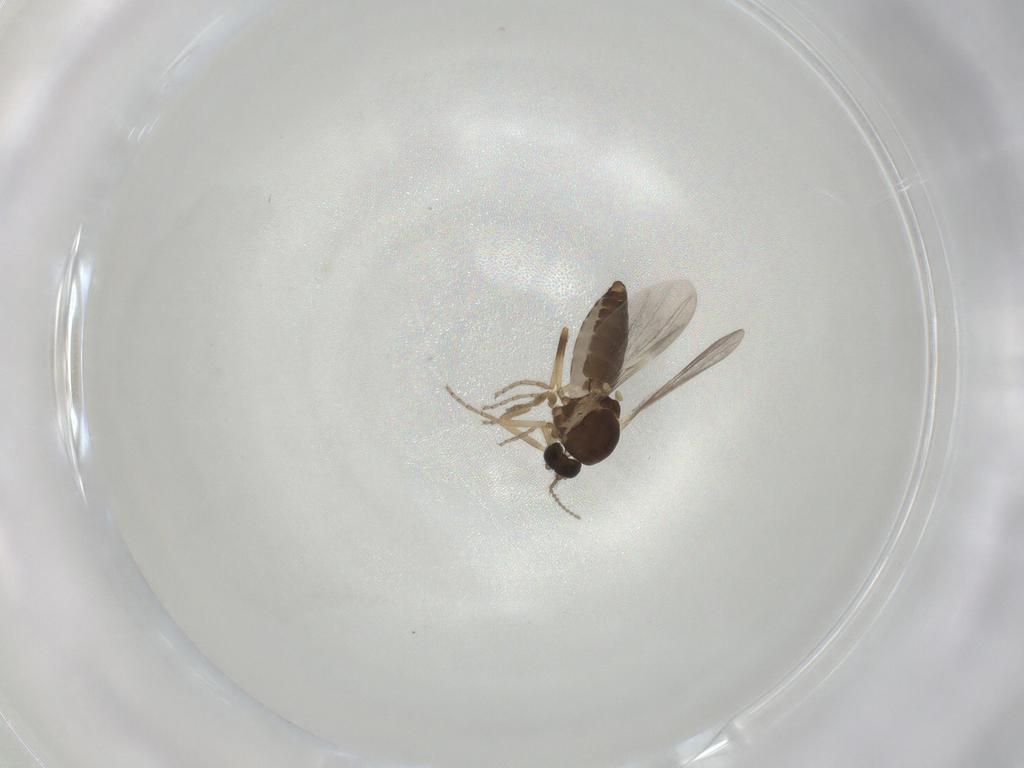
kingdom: Animalia
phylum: Arthropoda
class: Insecta
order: Diptera
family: Ceratopogonidae
